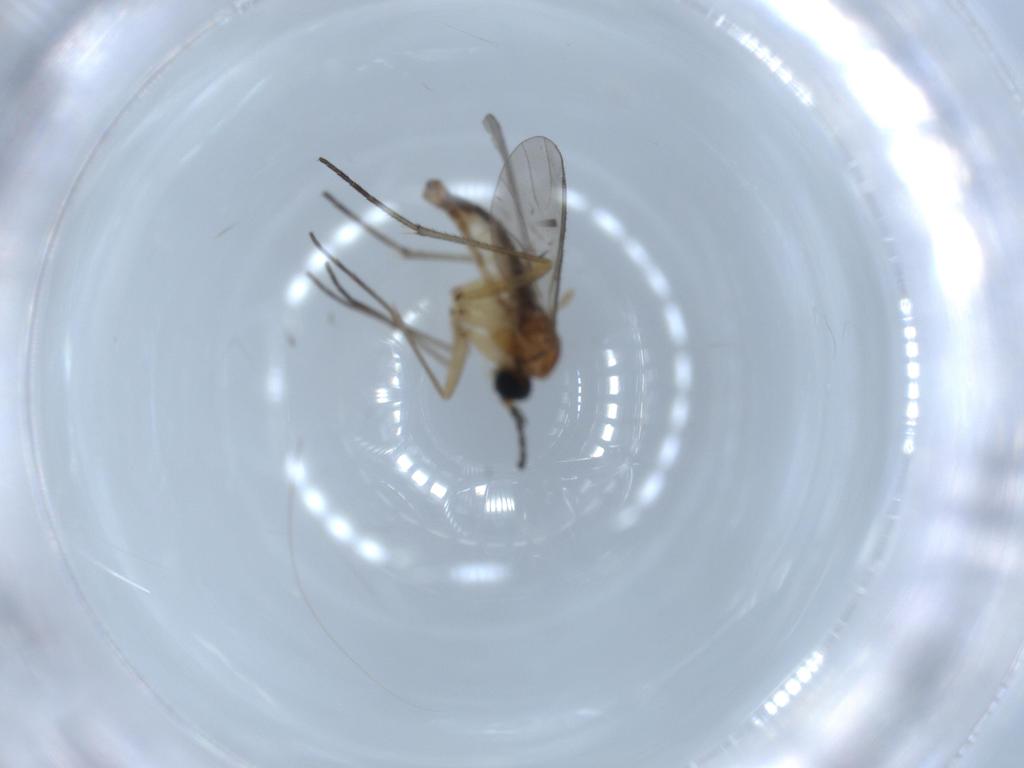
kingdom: Animalia
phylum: Arthropoda
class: Insecta
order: Diptera
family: Sciaridae
